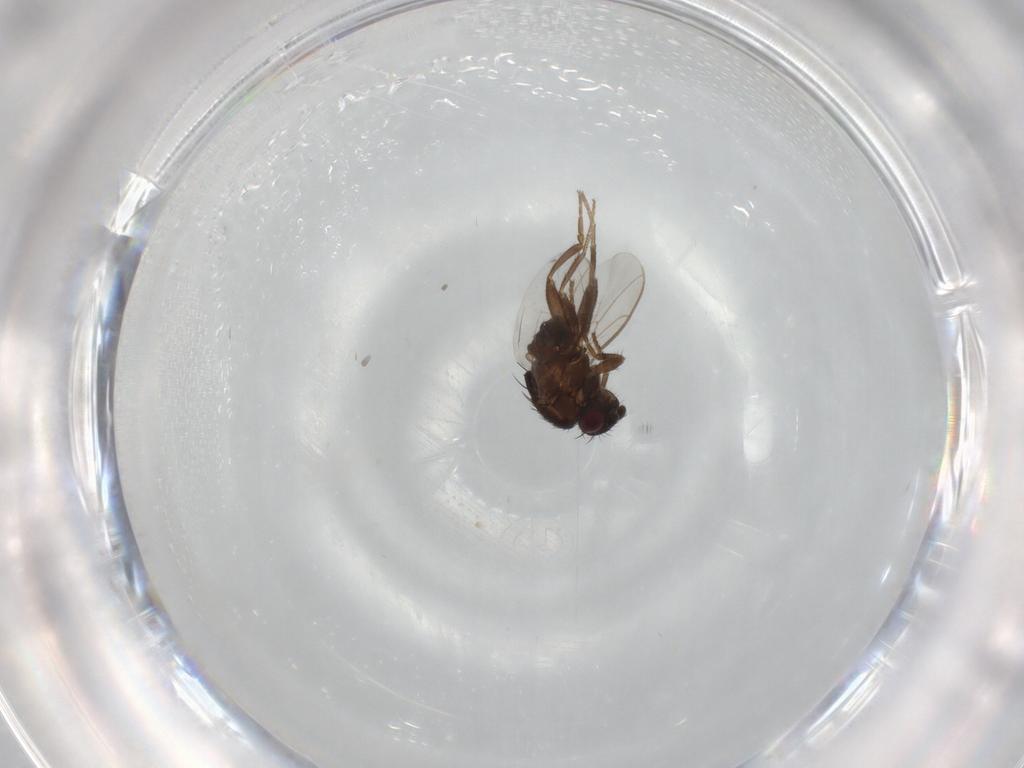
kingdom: Animalia
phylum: Arthropoda
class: Insecta
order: Diptera
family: Sphaeroceridae
